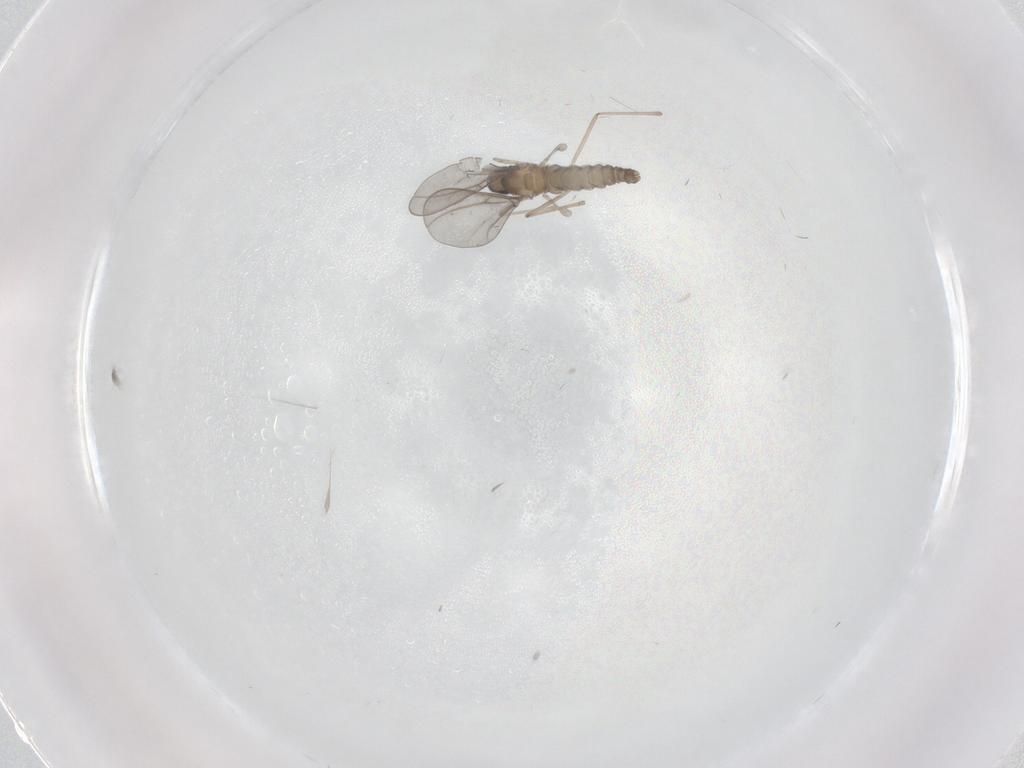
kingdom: Animalia
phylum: Arthropoda
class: Insecta
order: Diptera
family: Cecidomyiidae
